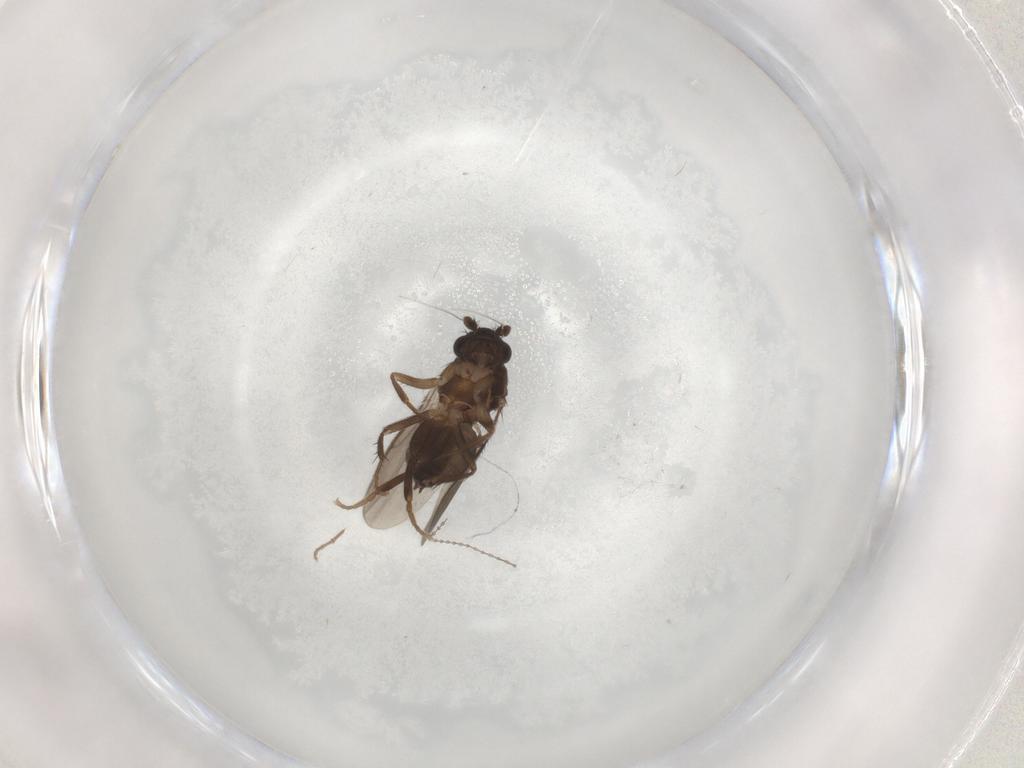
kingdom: Animalia
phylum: Arthropoda
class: Insecta
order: Diptera
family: Sphaeroceridae
